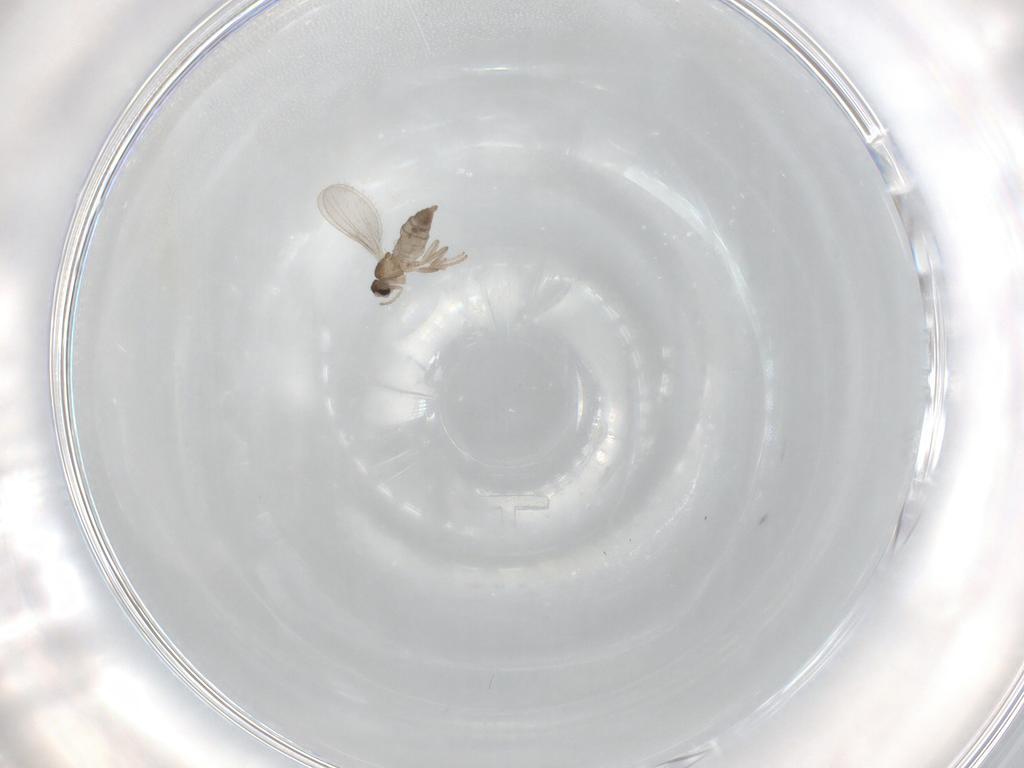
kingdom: Animalia
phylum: Arthropoda
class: Insecta
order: Diptera
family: Cecidomyiidae
